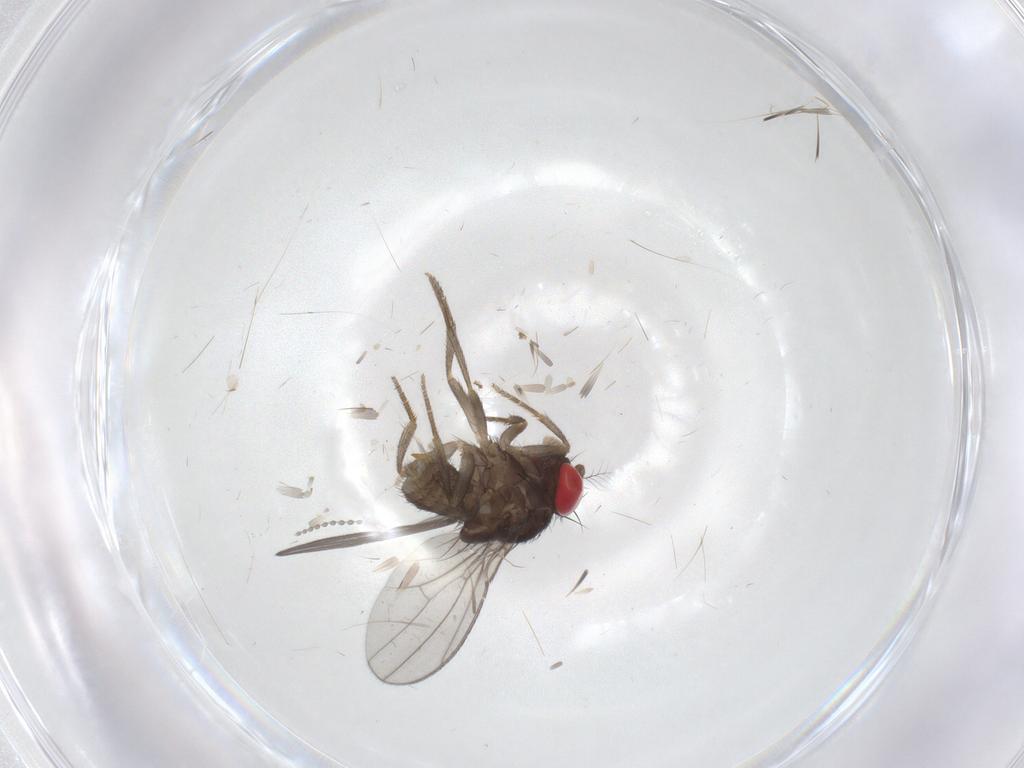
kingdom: Animalia
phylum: Arthropoda
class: Insecta
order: Diptera
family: Drosophilidae
